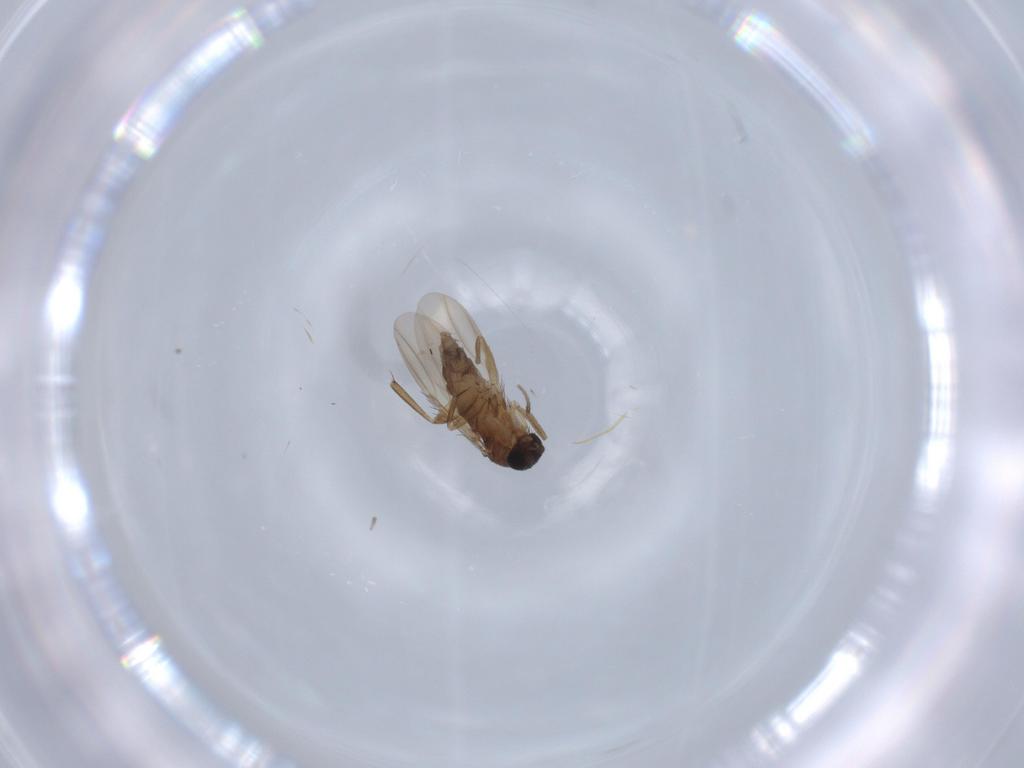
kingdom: Animalia
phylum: Arthropoda
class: Insecta
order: Diptera
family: Phoridae
